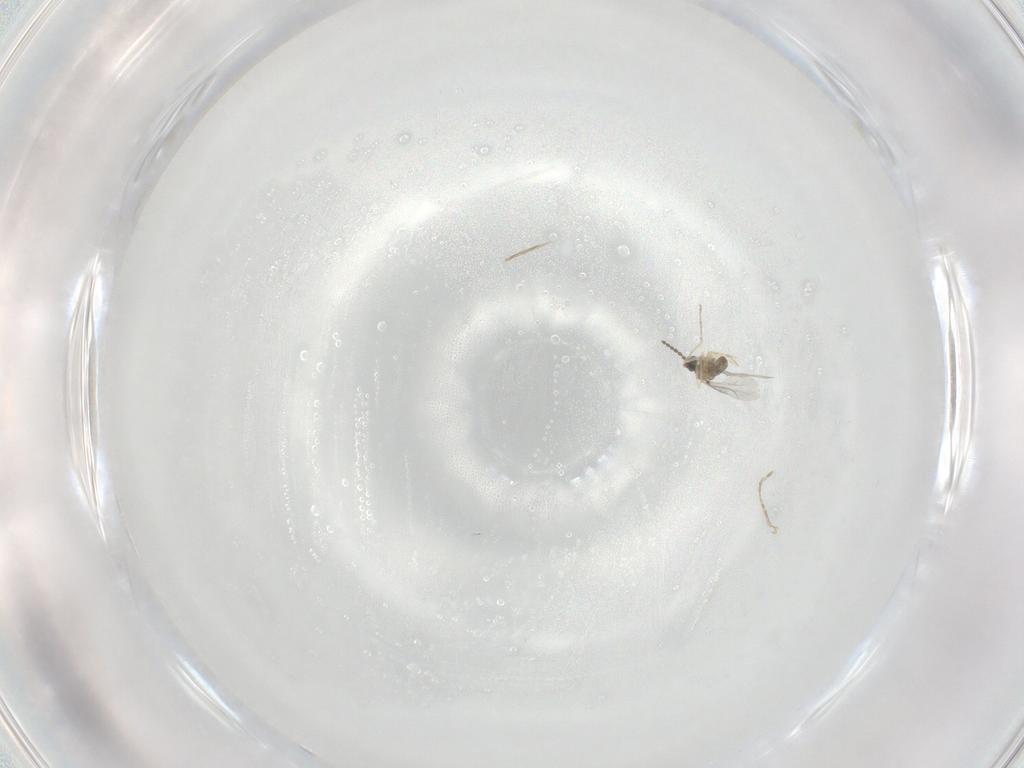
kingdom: Animalia
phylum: Arthropoda
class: Insecta
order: Diptera
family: Cecidomyiidae
